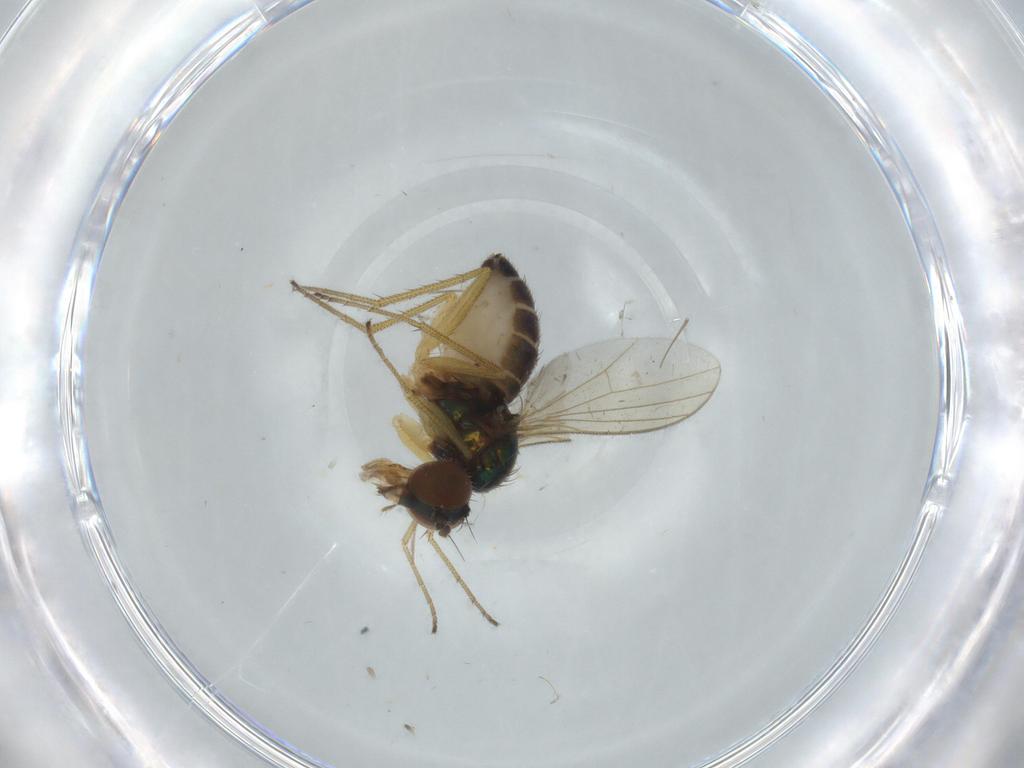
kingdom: Animalia
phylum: Arthropoda
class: Insecta
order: Diptera
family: Dolichopodidae
